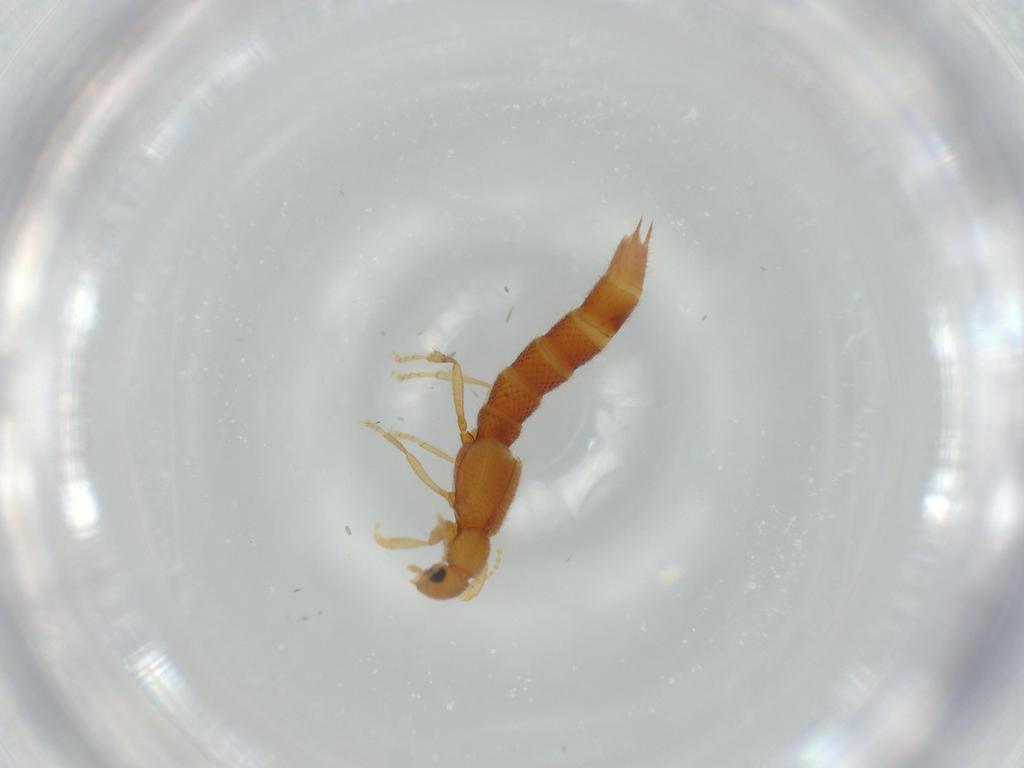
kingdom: Animalia
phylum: Arthropoda
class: Insecta
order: Coleoptera
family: Staphylinidae
